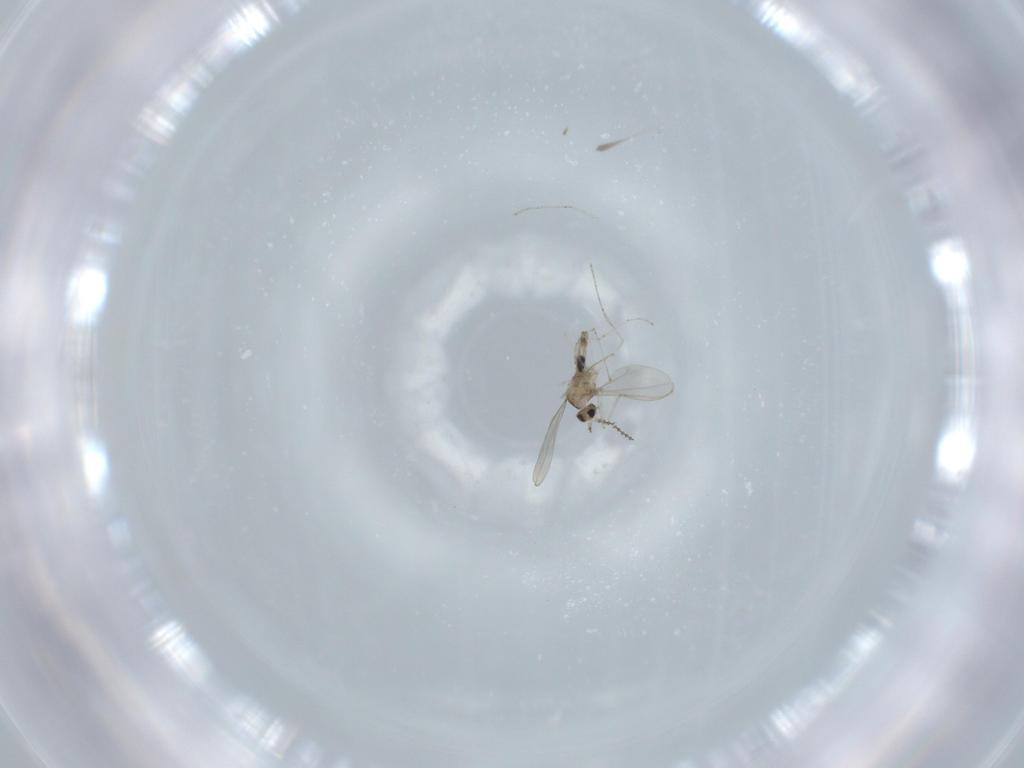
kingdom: Animalia
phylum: Arthropoda
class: Insecta
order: Diptera
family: Cecidomyiidae
